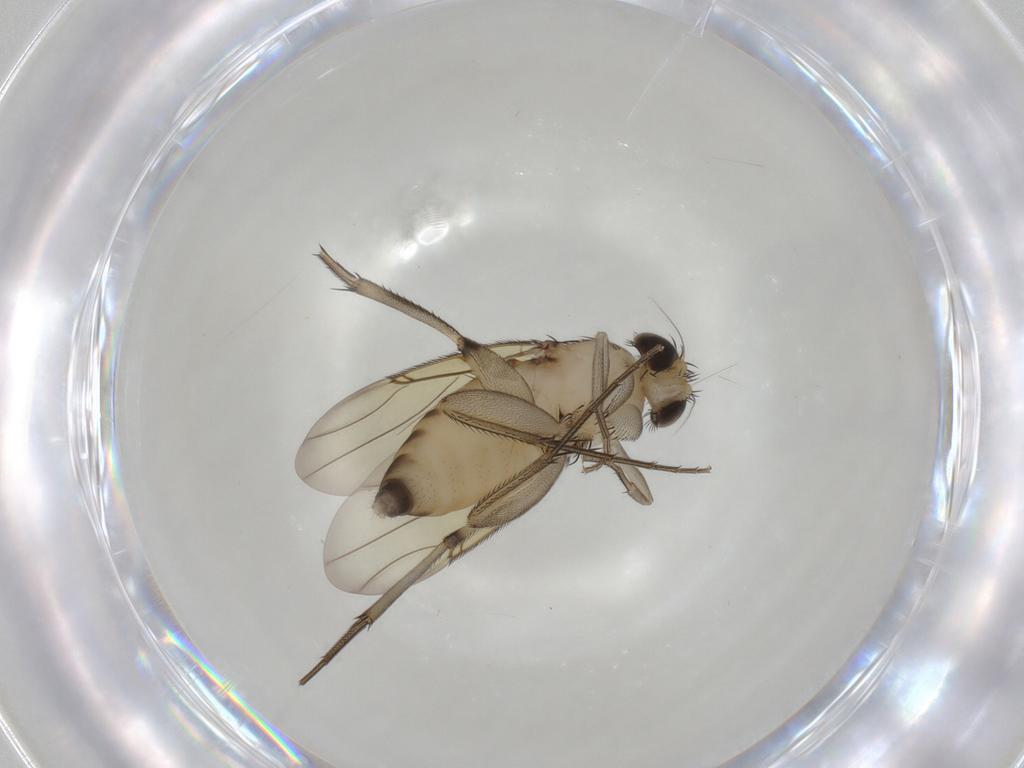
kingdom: Animalia
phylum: Arthropoda
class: Insecta
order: Diptera
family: Phoridae
